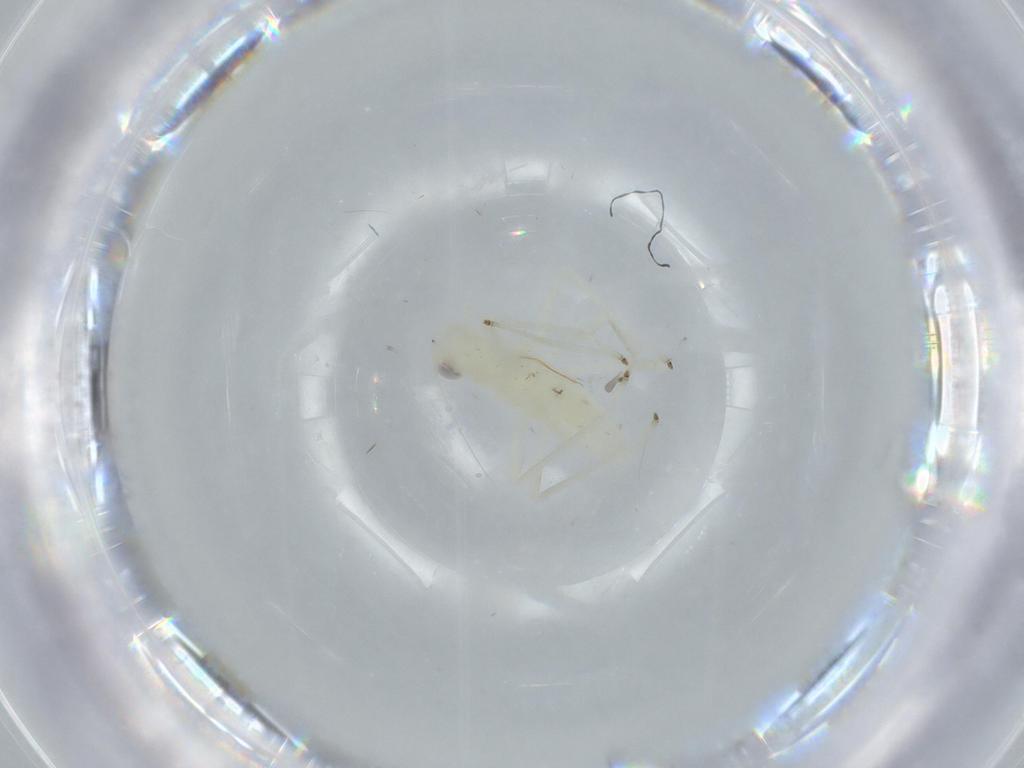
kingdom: Animalia
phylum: Arthropoda
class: Insecta
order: Hemiptera
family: Cicadellidae
